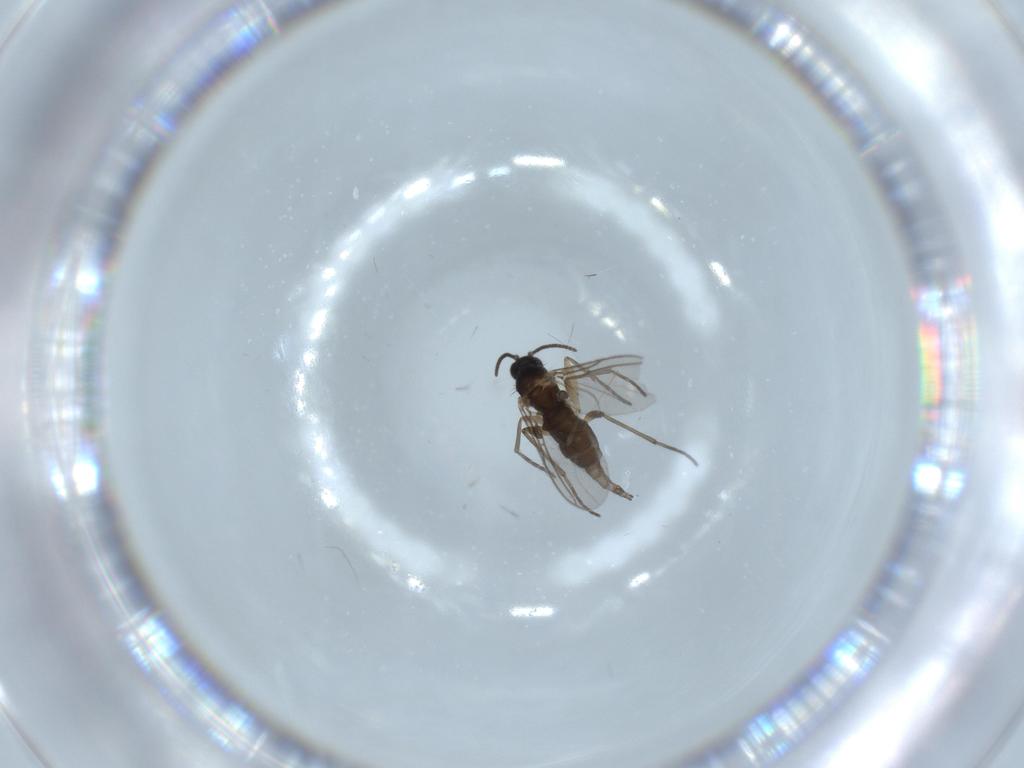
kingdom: Animalia
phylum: Arthropoda
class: Insecta
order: Diptera
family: Sciaridae
